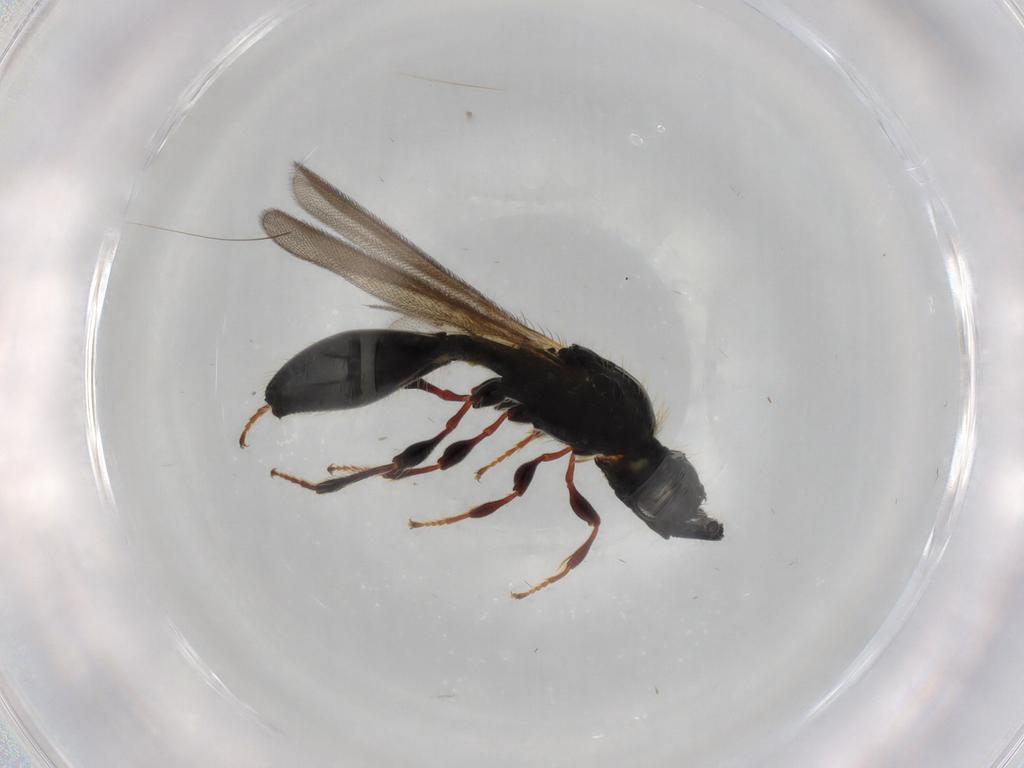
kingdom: Animalia
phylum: Arthropoda
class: Insecta
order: Hymenoptera
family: Diapriidae
